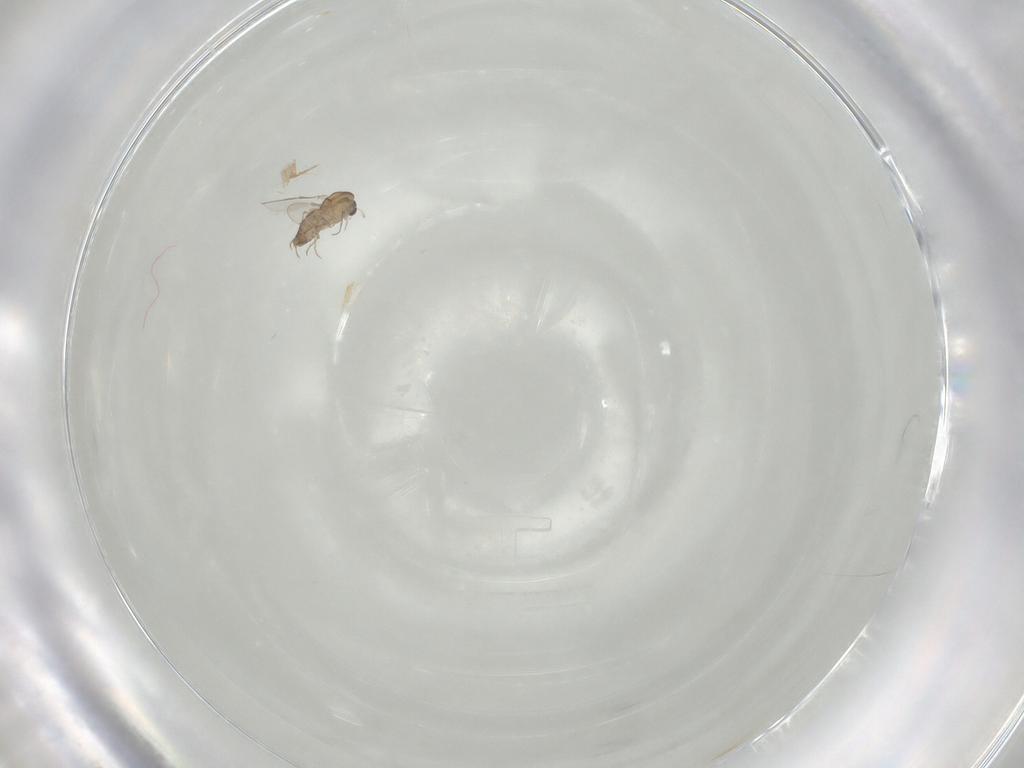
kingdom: Animalia
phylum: Arthropoda
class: Insecta
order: Diptera
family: Chironomidae
